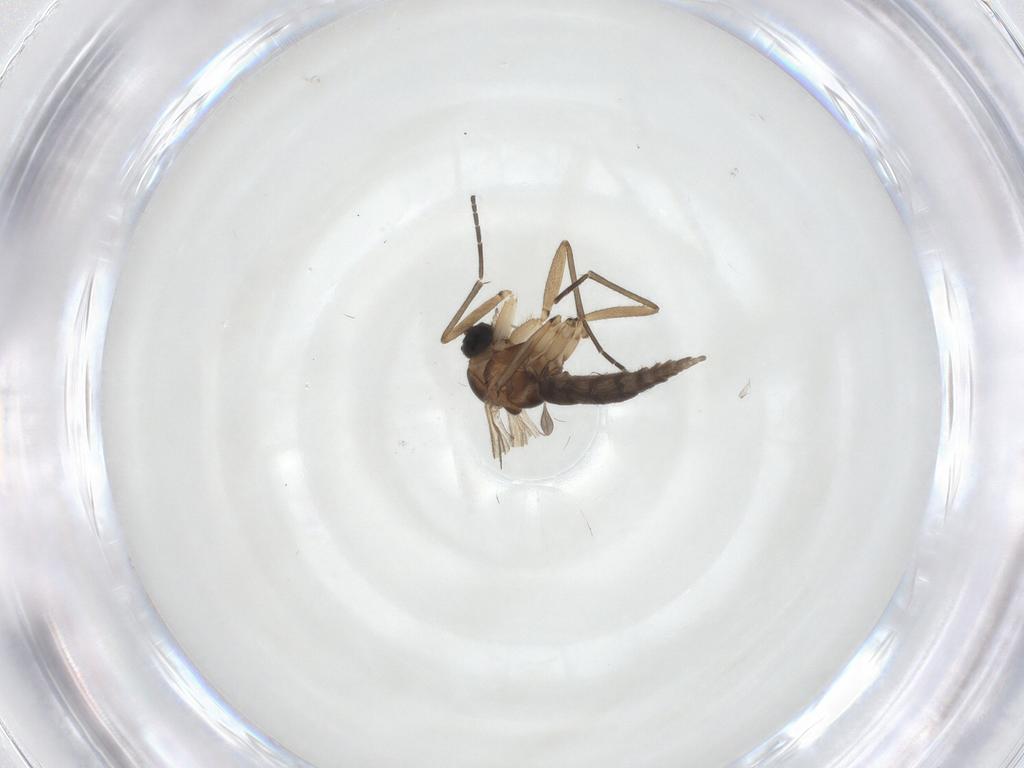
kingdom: Animalia
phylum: Arthropoda
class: Insecta
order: Diptera
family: Sciaridae
